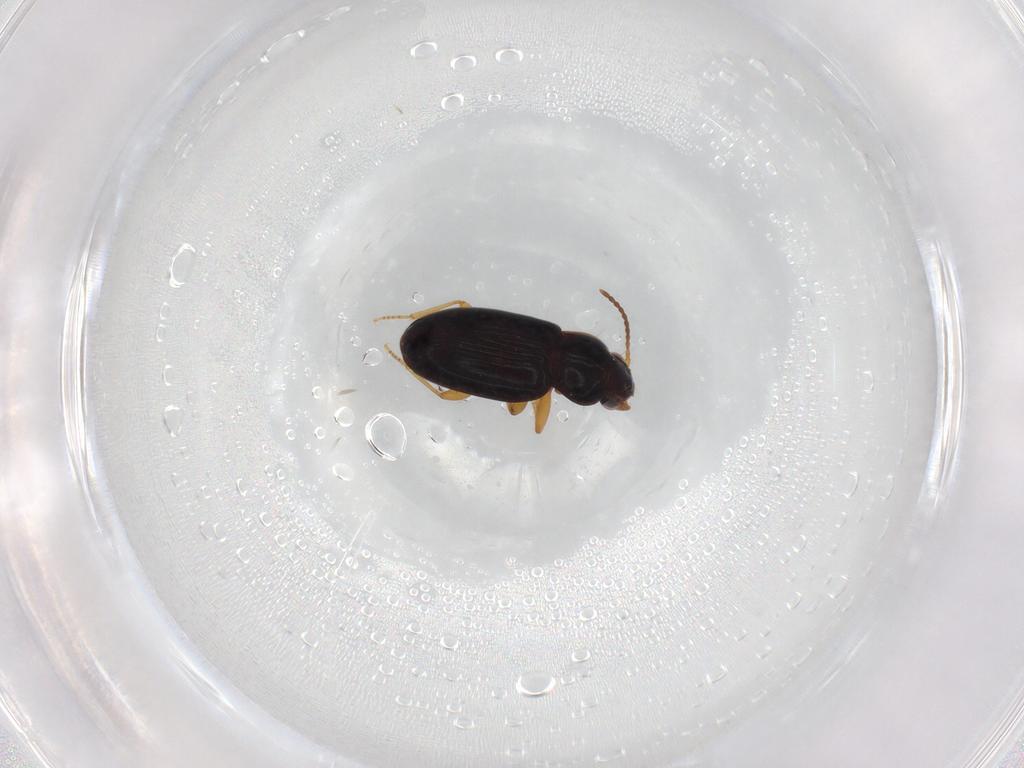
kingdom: Animalia
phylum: Arthropoda
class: Insecta
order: Coleoptera
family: Carabidae
